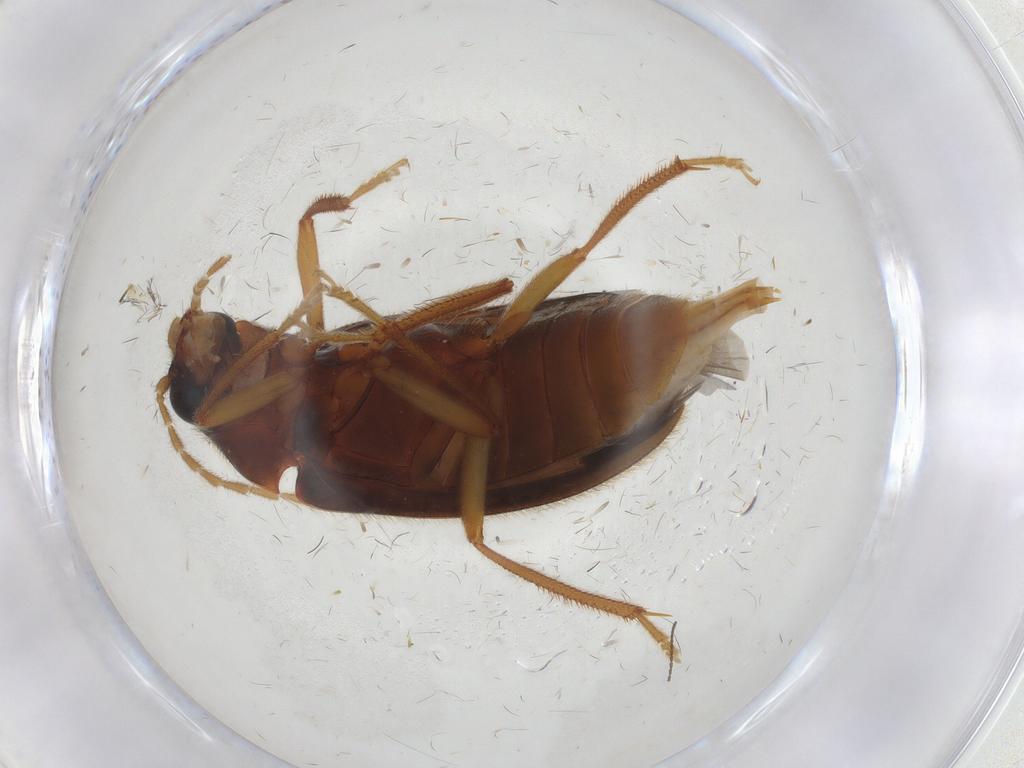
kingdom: Animalia
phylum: Arthropoda
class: Insecta
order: Coleoptera
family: Ptilodactylidae
